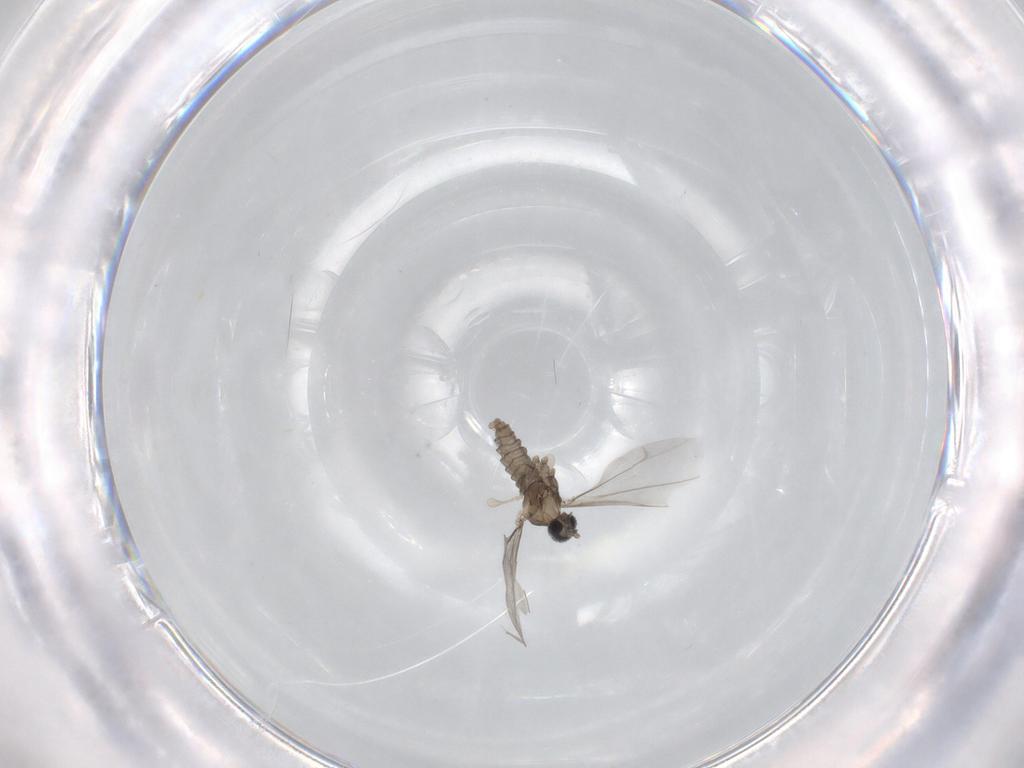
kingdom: Animalia
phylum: Arthropoda
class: Insecta
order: Diptera
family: Cecidomyiidae
